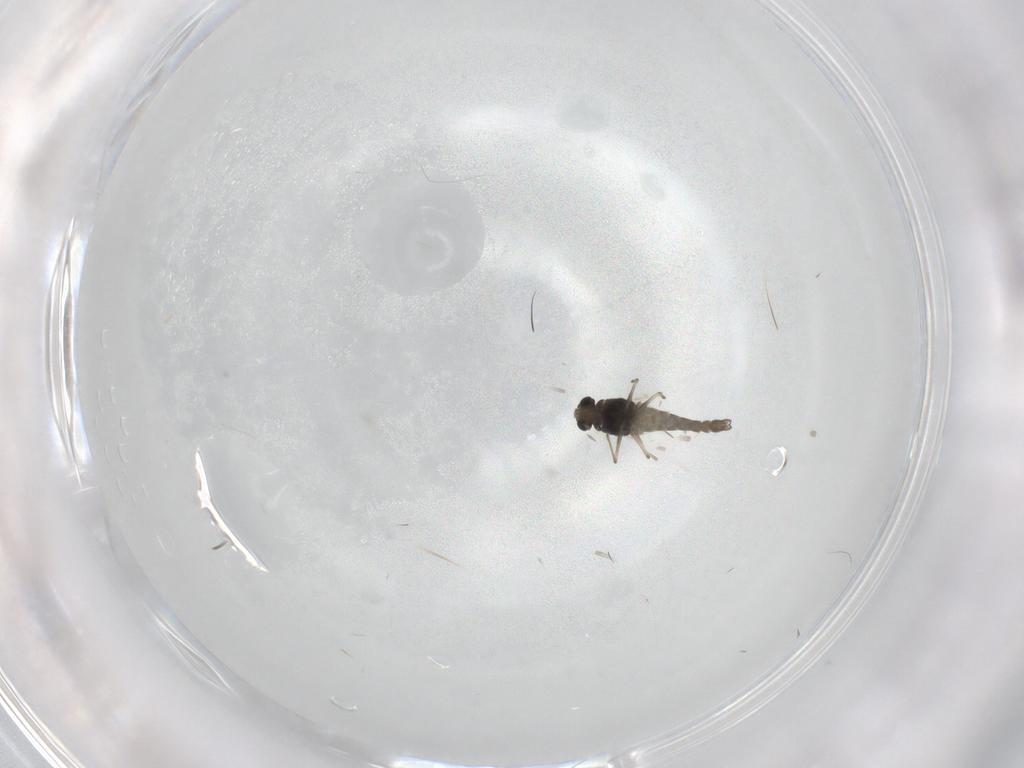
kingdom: Animalia
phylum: Arthropoda
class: Insecta
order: Diptera
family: Chironomidae
